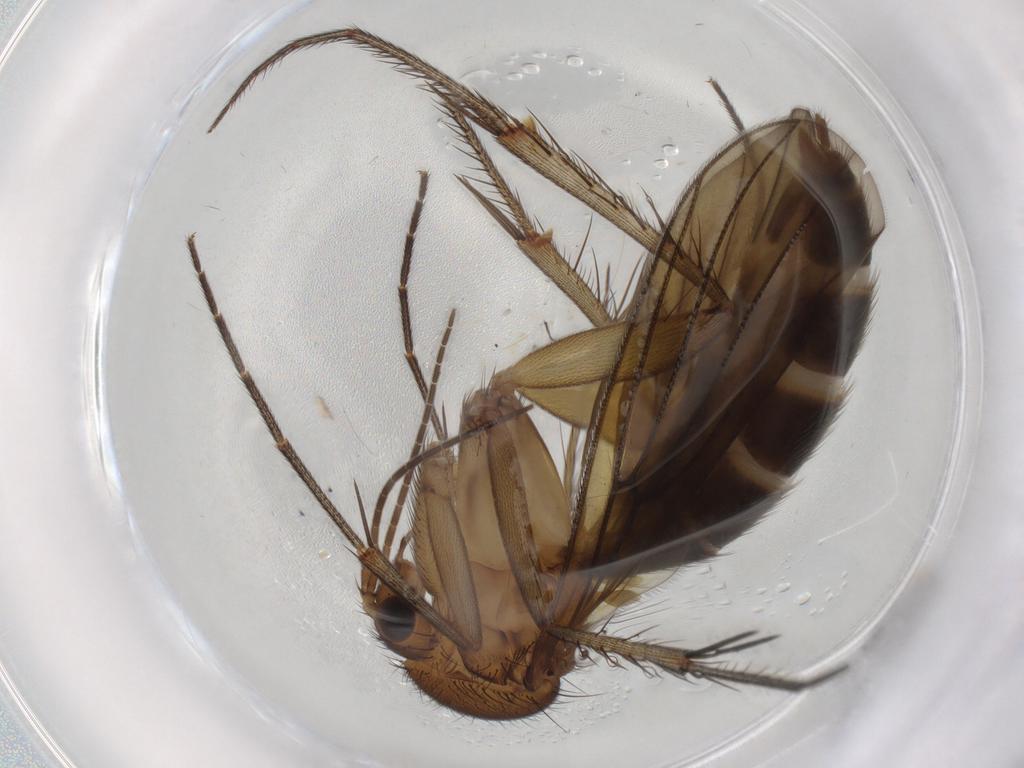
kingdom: Animalia
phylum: Arthropoda
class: Insecta
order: Diptera
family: Mycetophilidae
